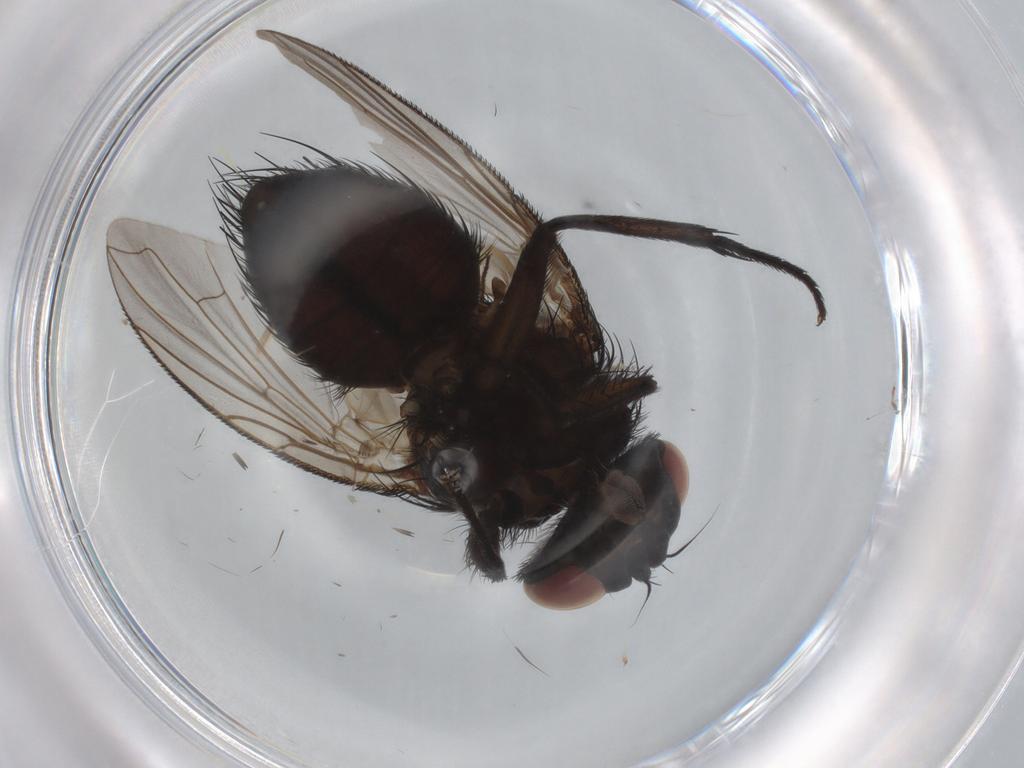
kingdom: Animalia
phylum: Arthropoda
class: Insecta
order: Diptera
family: Tachinidae
